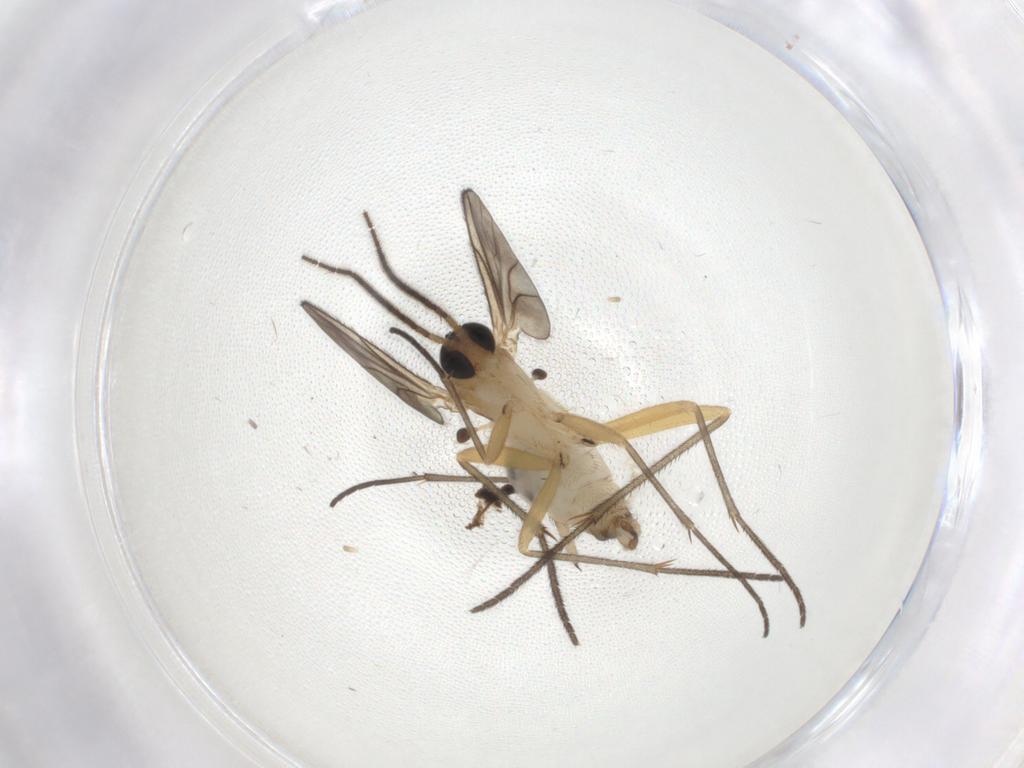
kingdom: Animalia
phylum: Arthropoda
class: Insecta
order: Diptera
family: Sciaridae
